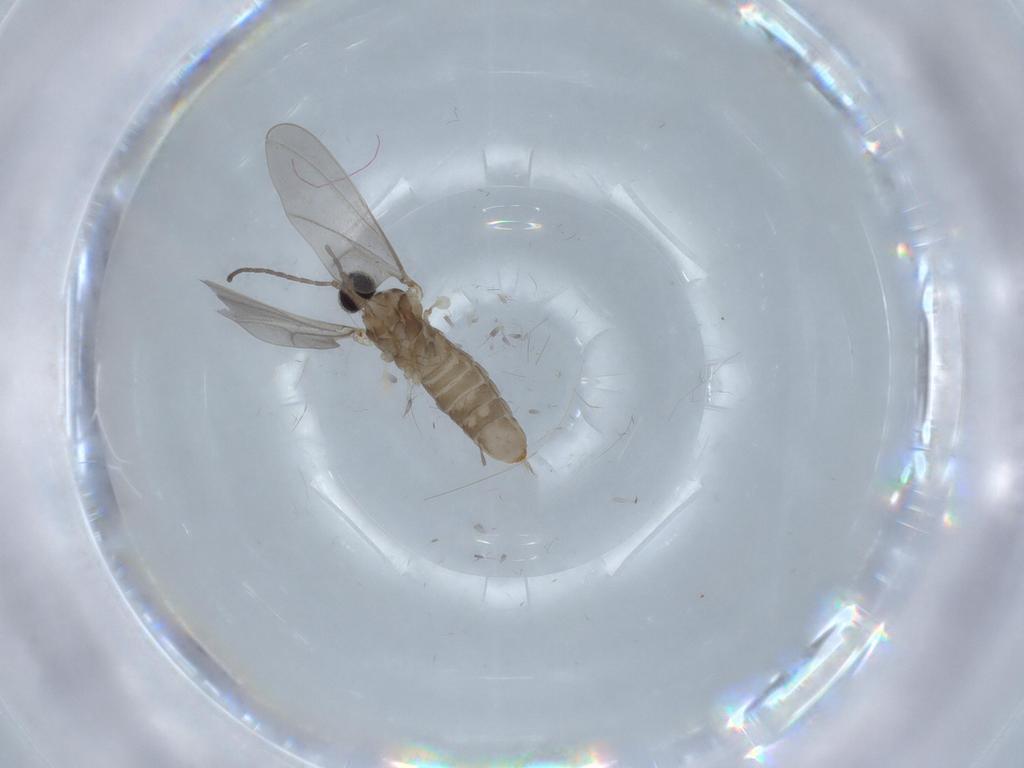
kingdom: Animalia
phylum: Arthropoda
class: Insecta
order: Diptera
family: Cecidomyiidae
